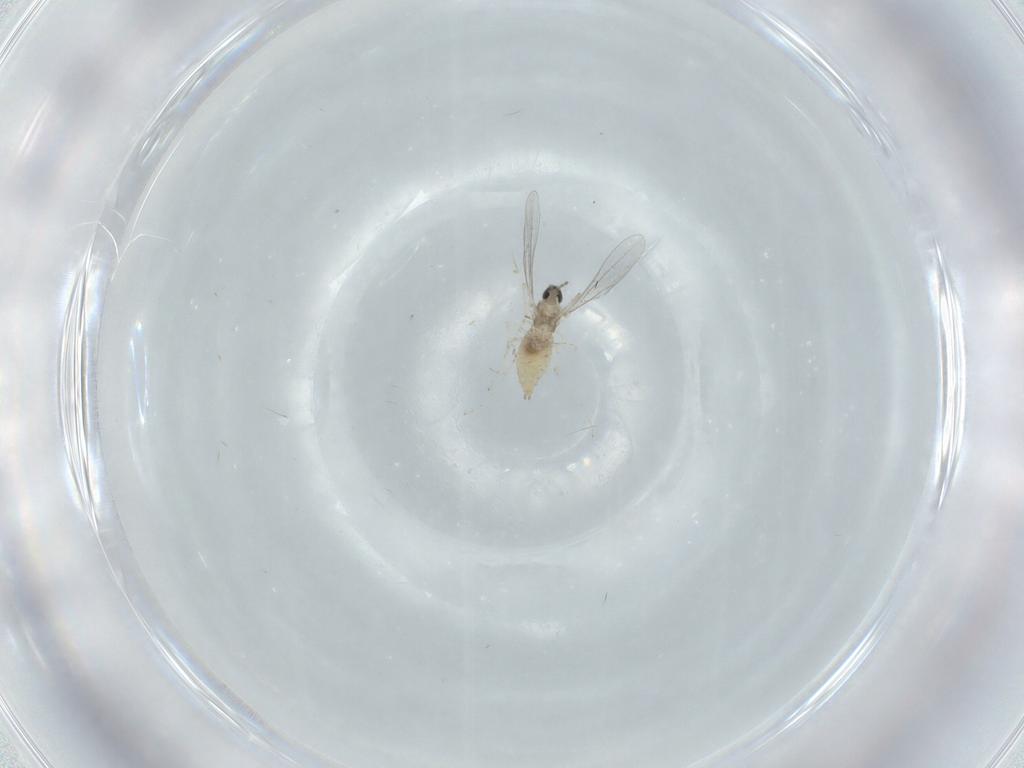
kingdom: Animalia
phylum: Arthropoda
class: Insecta
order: Diptera
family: Cecidomyiidae
